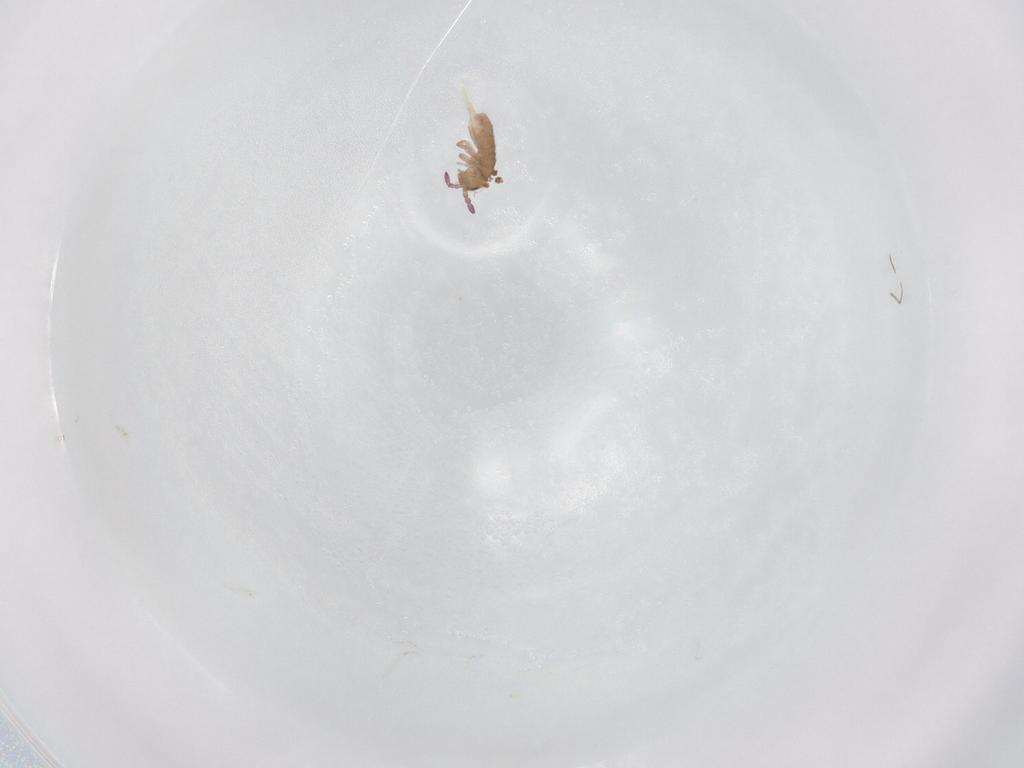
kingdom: Animalia
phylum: Arthropoda
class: Collembola
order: Entomobryomorpha
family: Isotomidae
